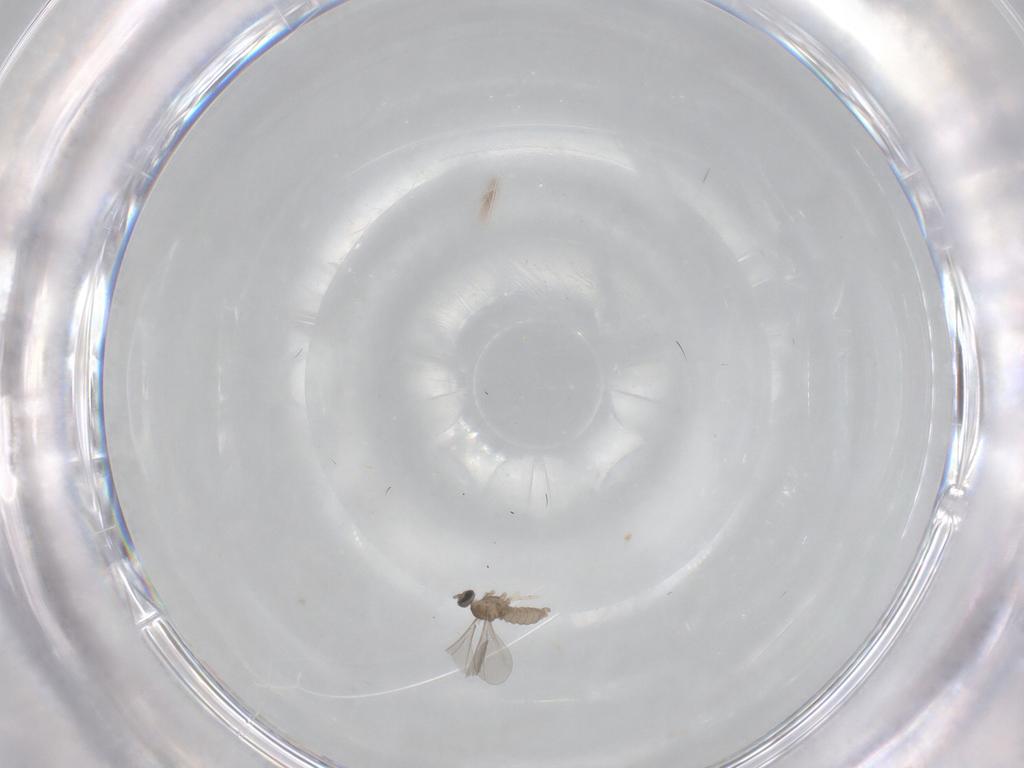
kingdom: Animalia
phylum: Arthropoda
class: Insecta
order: Diptera
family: Cecidomyiidae
